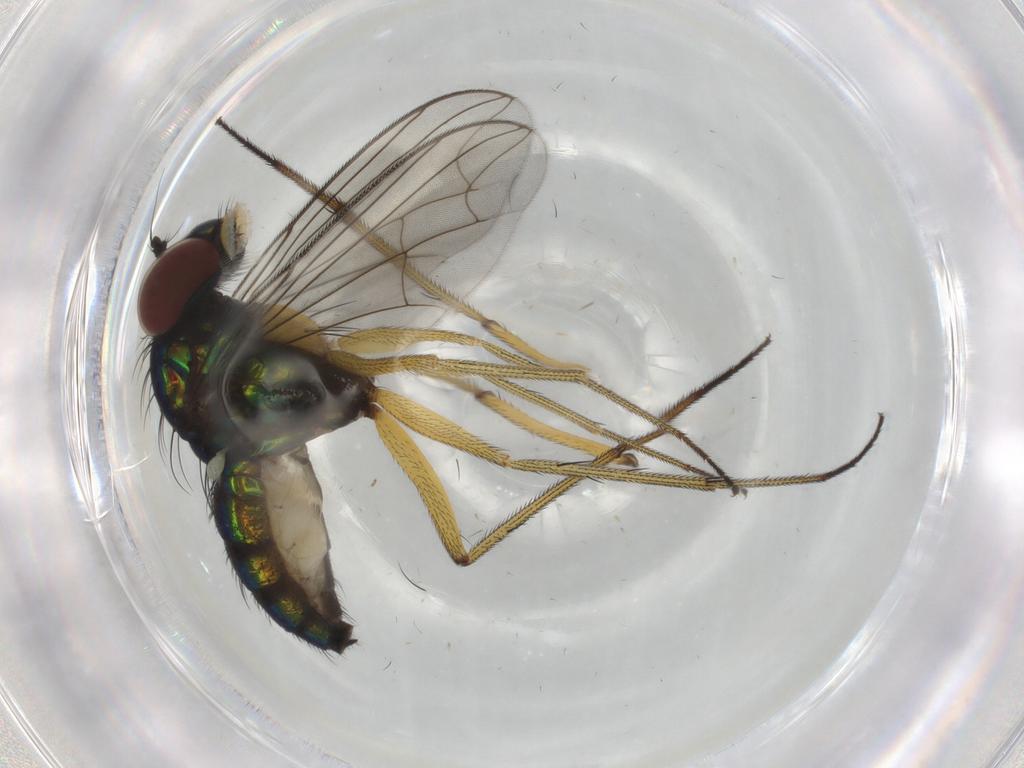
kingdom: Animalia
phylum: Arthropoda
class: Insecta
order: Diptera
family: Dolichopodidae
